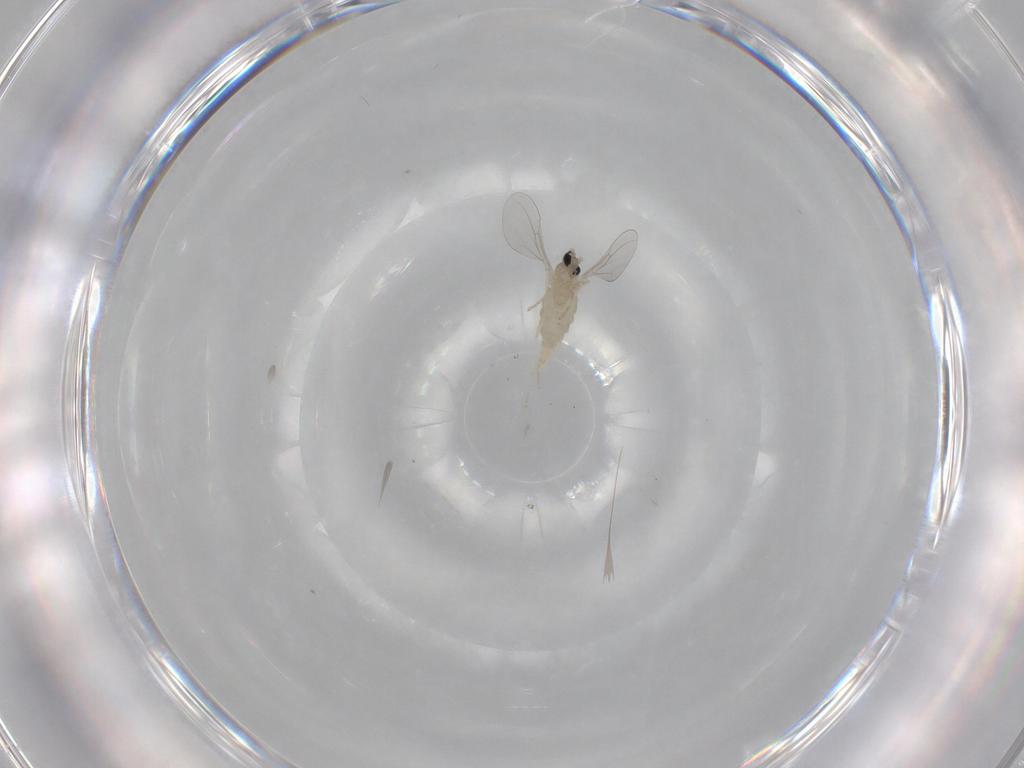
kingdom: Animalia
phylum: Arthropoda
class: Insecta
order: Diptera
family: Cecidomyiidae
